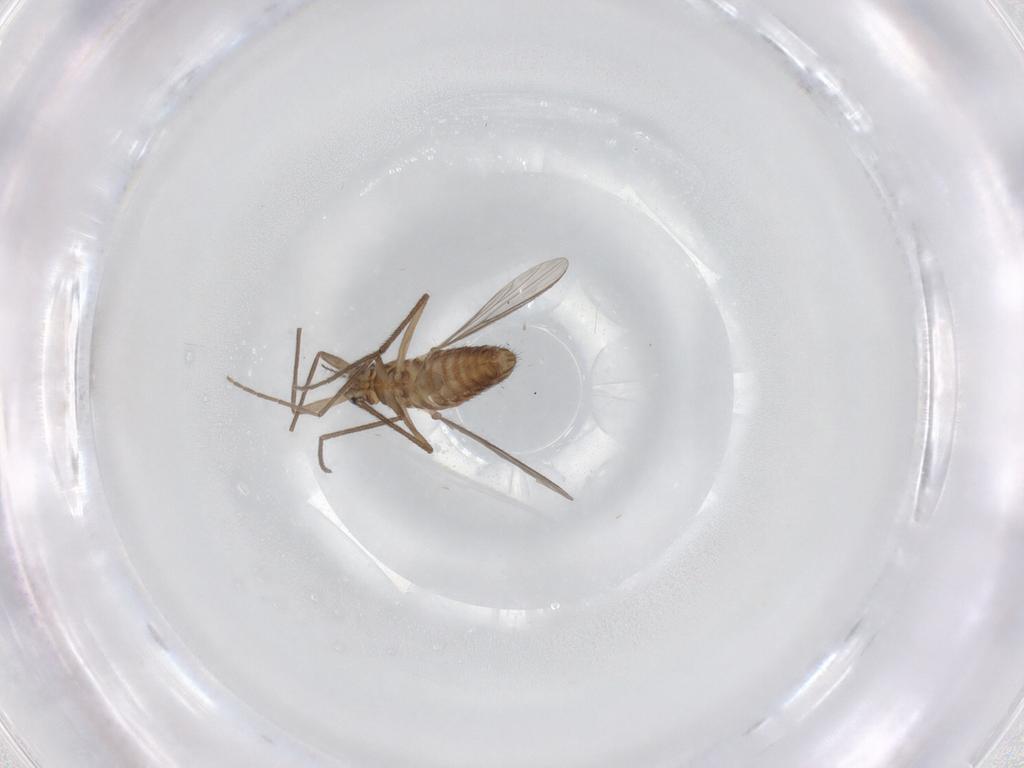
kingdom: Animalia
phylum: Arthropoda
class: Insecta
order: Diptera
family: Chironomidae
